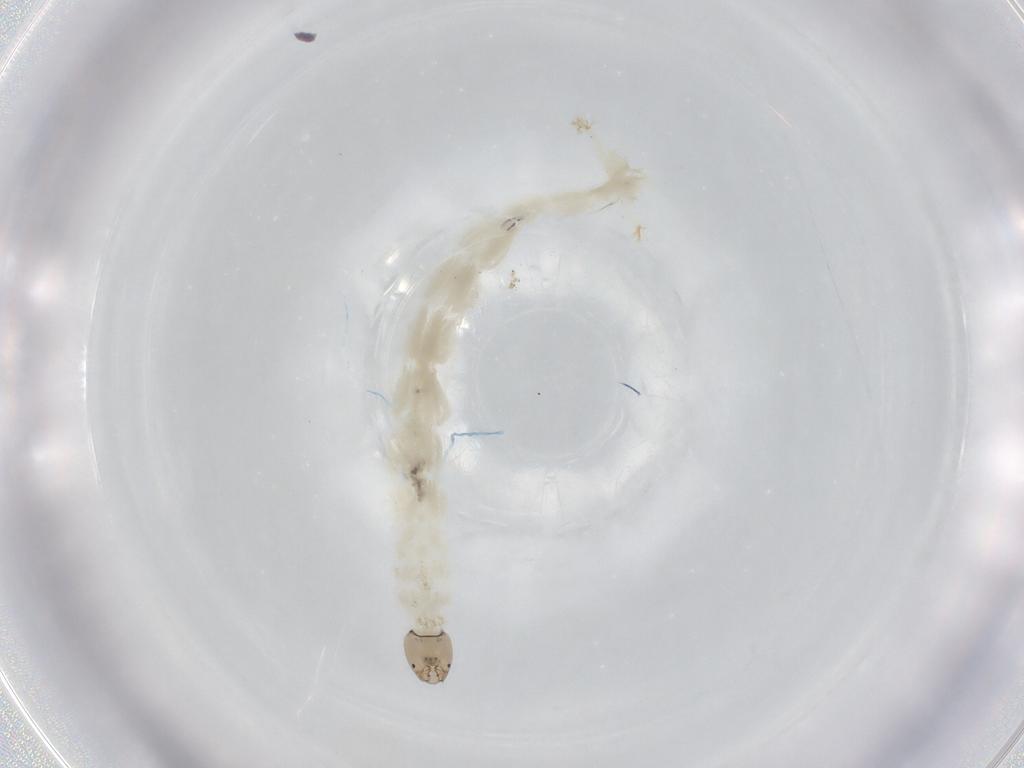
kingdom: Animalia
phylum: Arthropoda
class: Insecta
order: Diptera
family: Chironomidae
